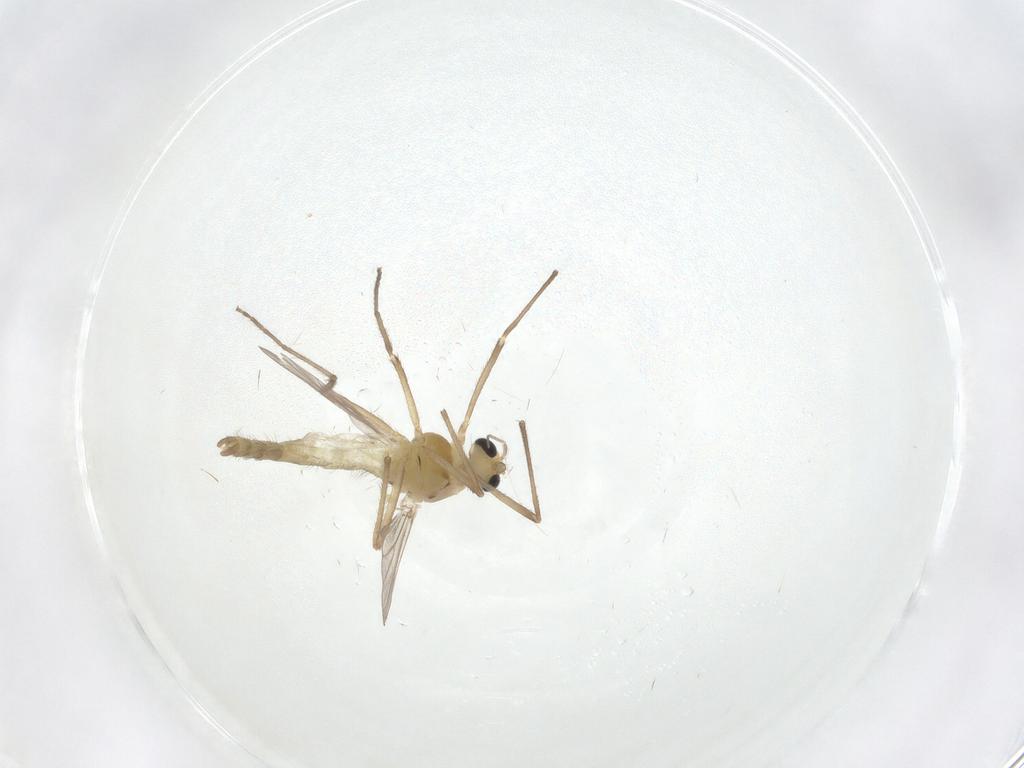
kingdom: Animalia
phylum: Arthropoda
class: Insecta
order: Diptera
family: Chironomidae
